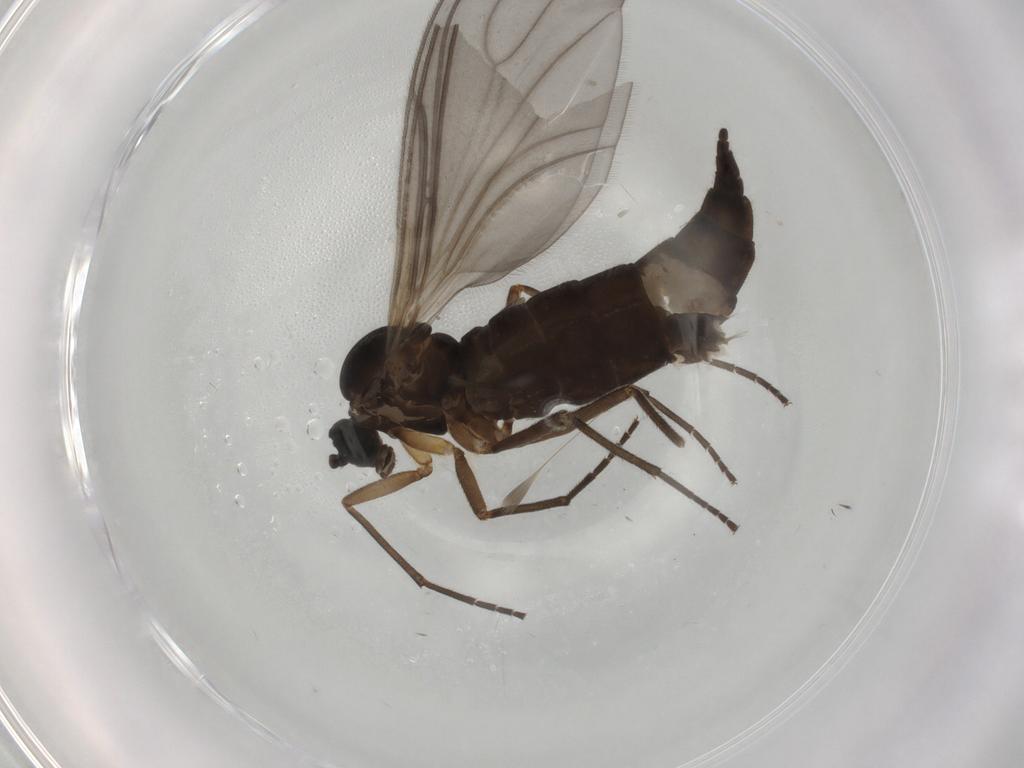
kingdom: Animalia
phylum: Arthropoda
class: Insecta
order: Diptera
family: Sciaridae
